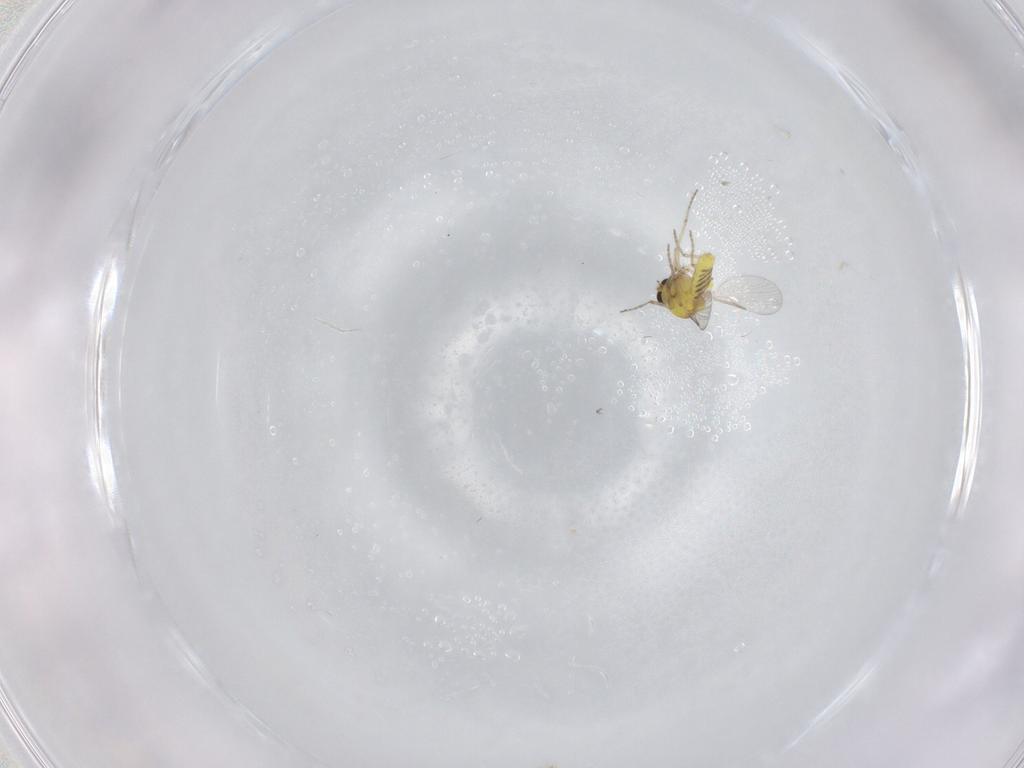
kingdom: Animalia
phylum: Arthropoda
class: Insecta
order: Diptera
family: Ceratopogonidae
